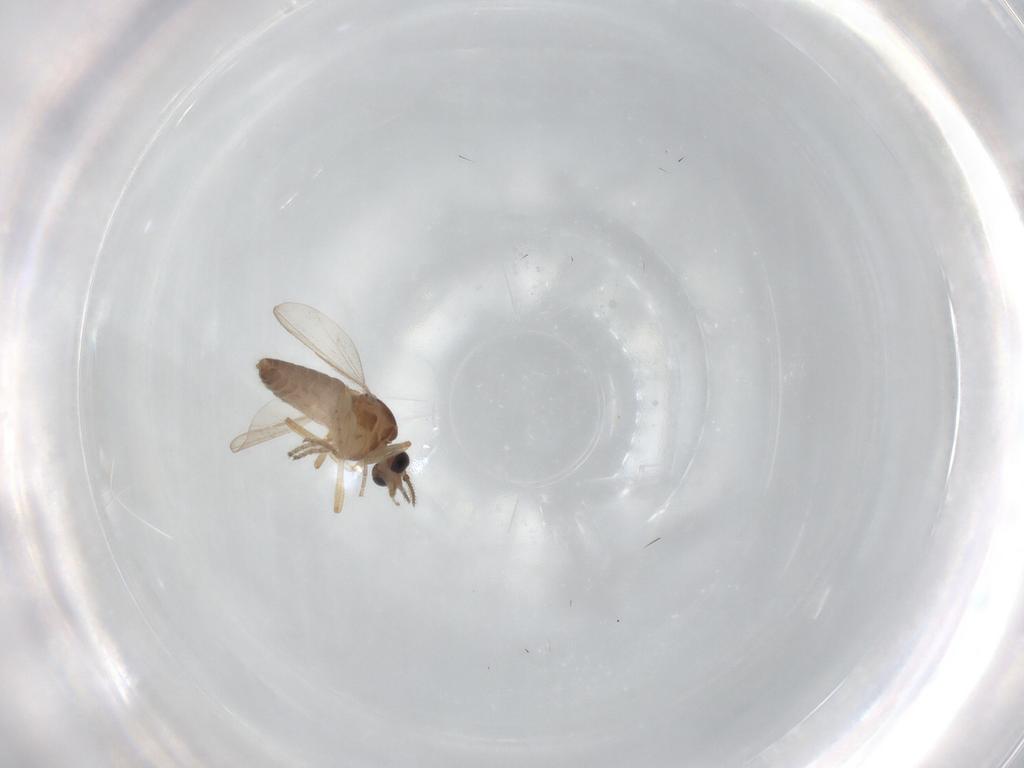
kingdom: Animalia
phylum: Arthropoda
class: Insecta
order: Diptera
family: Ceratopogonidae
